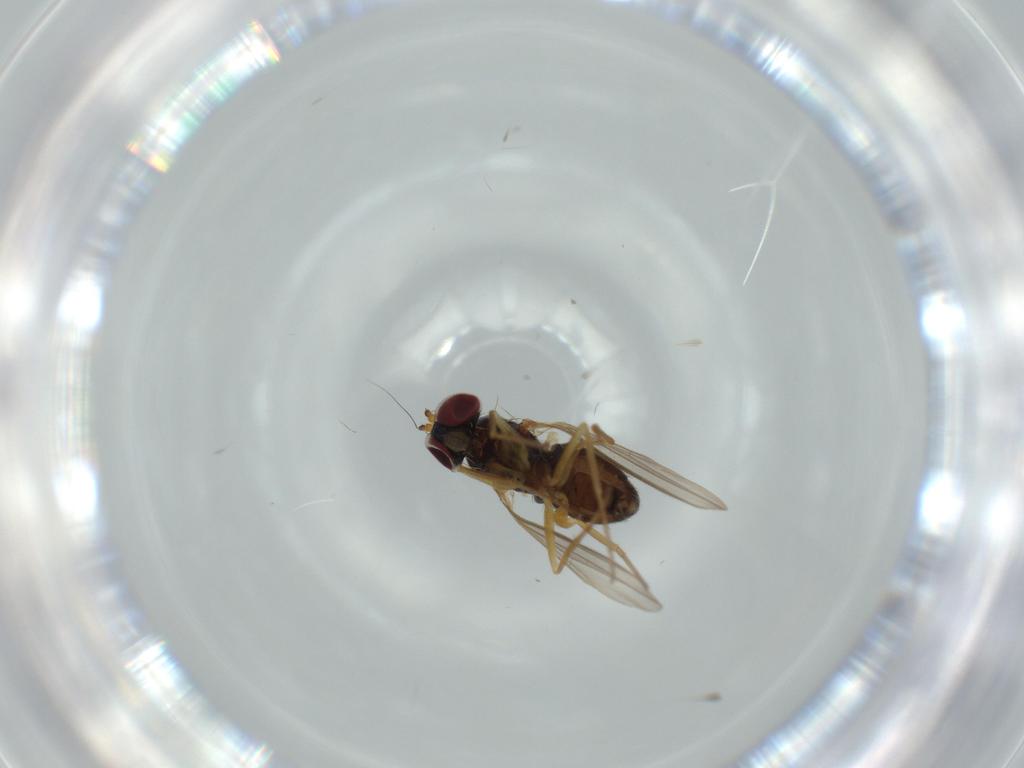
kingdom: Animalia
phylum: Arthropoda
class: Insecta
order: Diptera
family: Dolichopodidae
